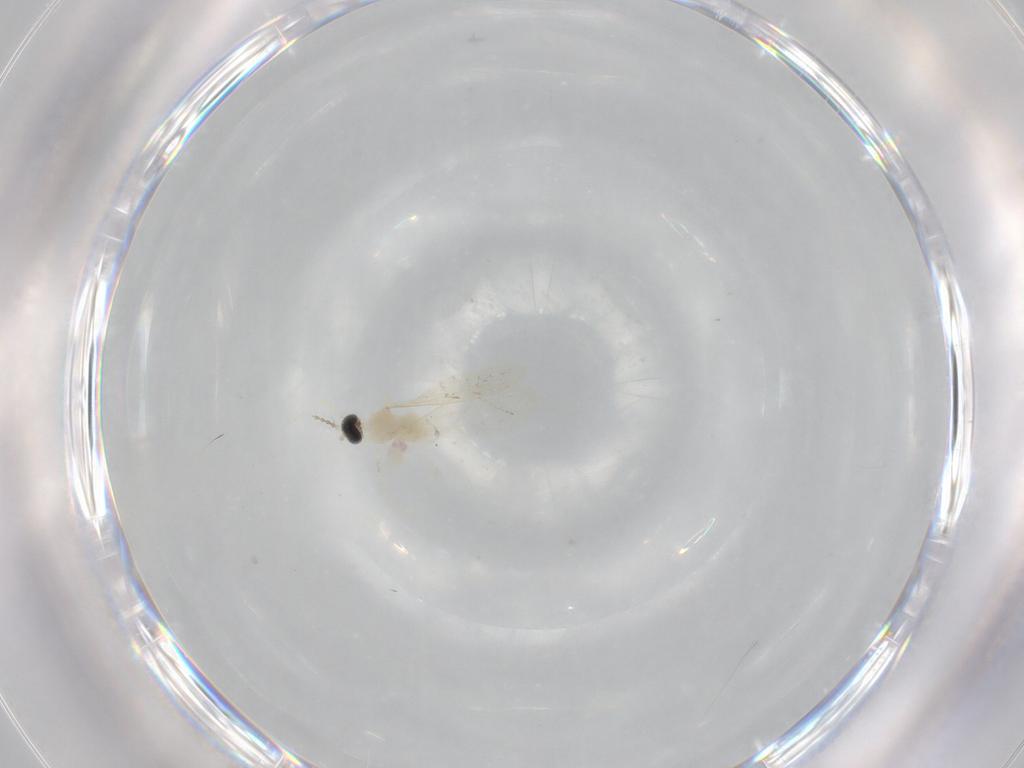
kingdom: Animalia
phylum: Arthropoda
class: Insecta
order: Diptera
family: Cecidomyiidae
